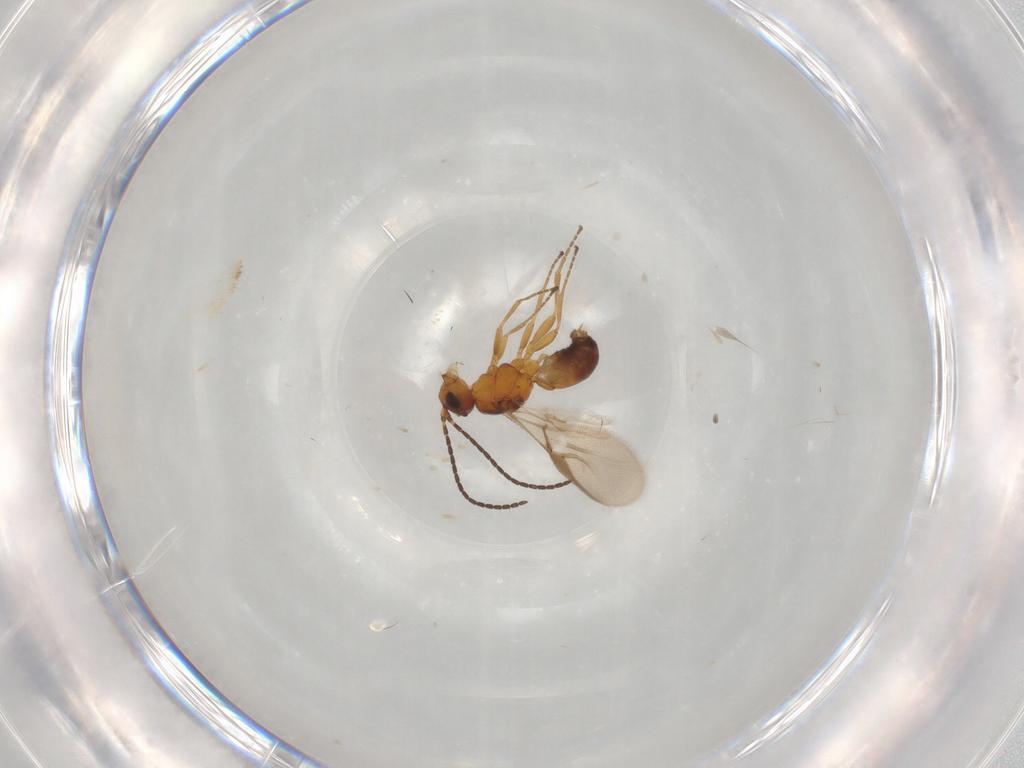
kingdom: Animalia
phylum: Arthropoda
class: Insecta
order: Hymenoptera
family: Braconidae
